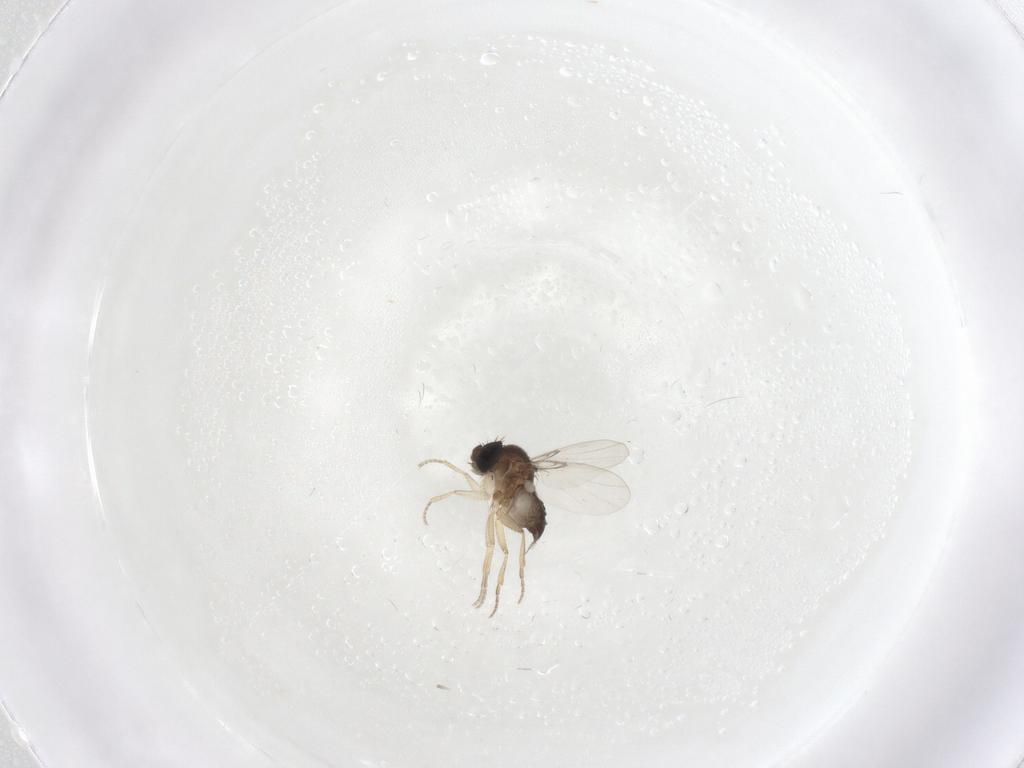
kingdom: Animalia
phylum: Arthropoda
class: Insecta
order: Diptera
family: Phoridae
